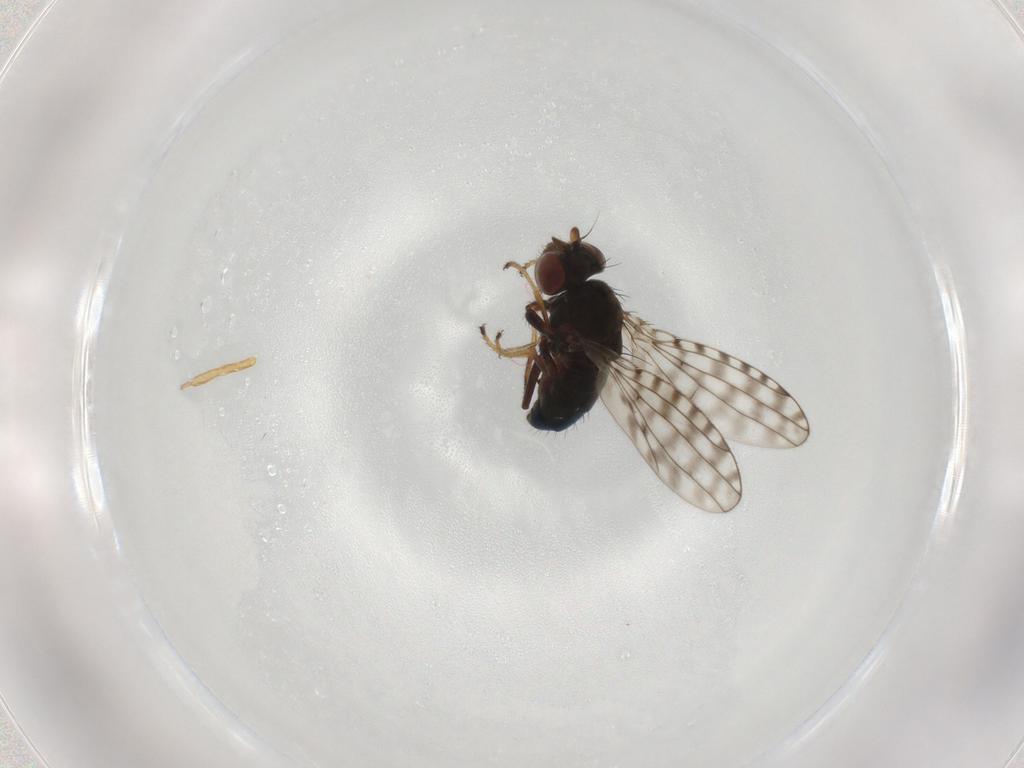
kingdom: Animalia
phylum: Arthropoda
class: Insecta
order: Diptera
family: Ephydridae
